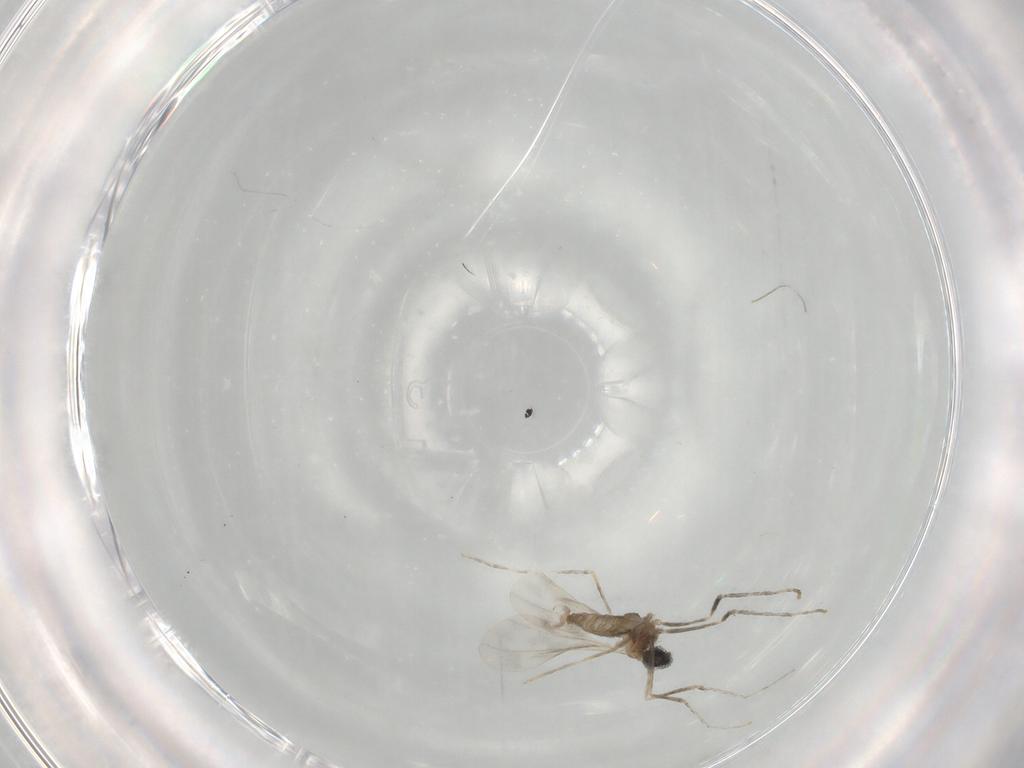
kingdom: Animalia
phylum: Arthropoda
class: Insecta
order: Diptera
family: Cecidomyiidae
